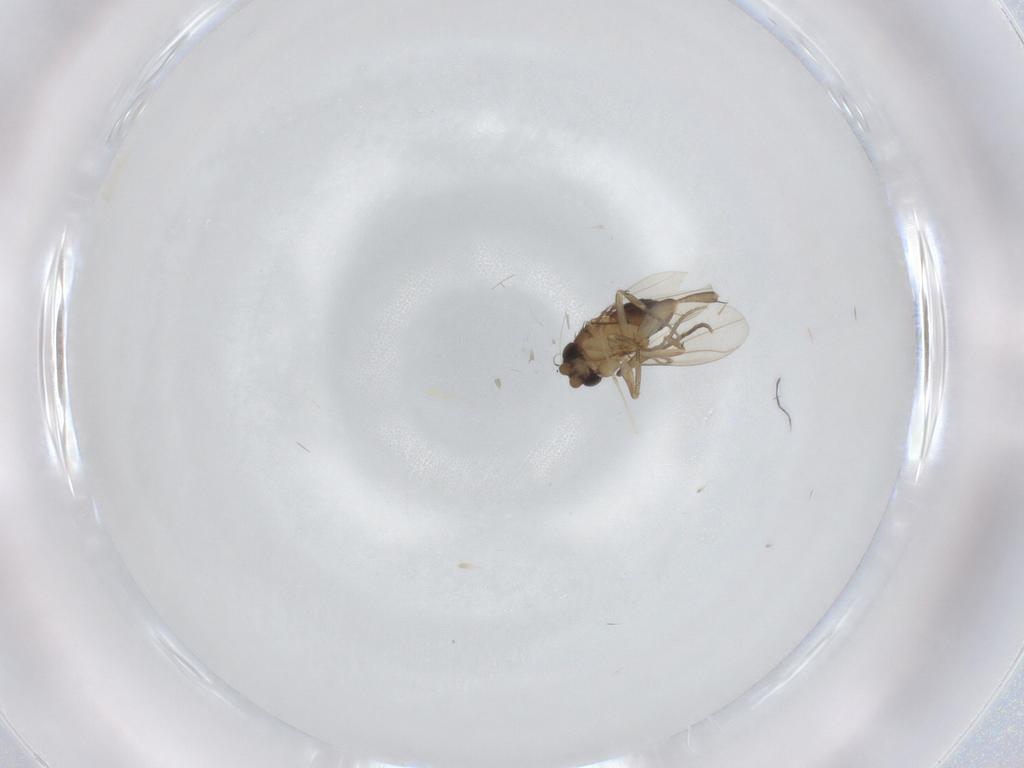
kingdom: Animalia
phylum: Arthropoda
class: Insecta
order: Diptera
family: Phoridae
